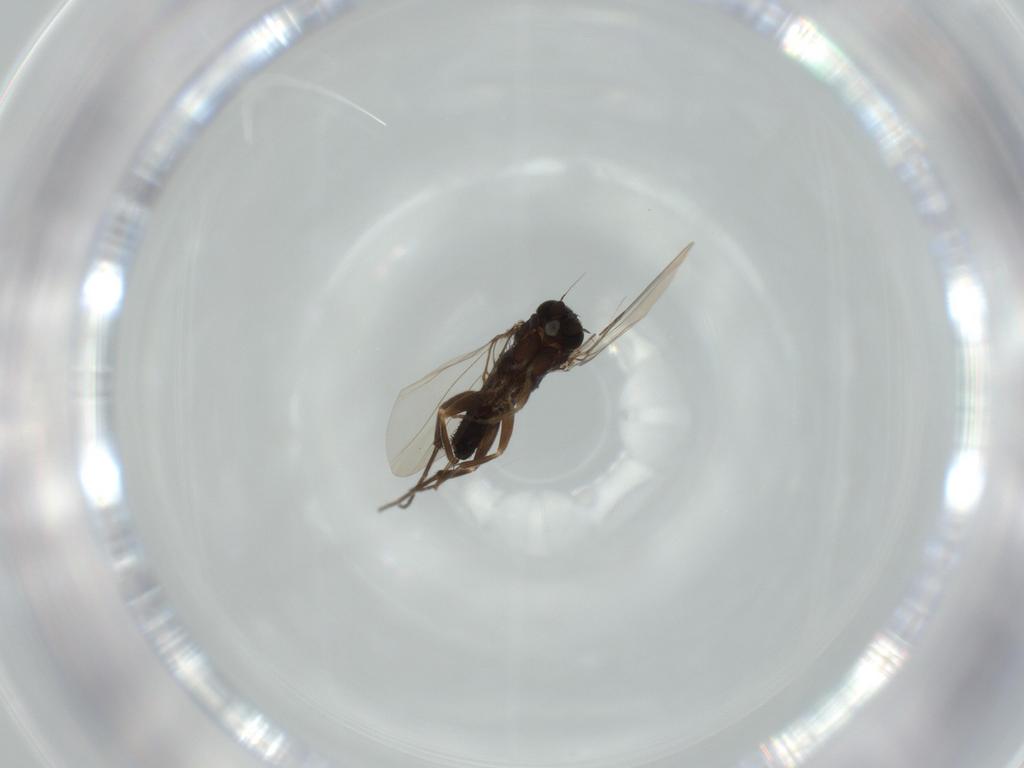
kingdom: Animalia
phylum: Arthropoda
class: Insecta
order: Diptera
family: Phoridae
